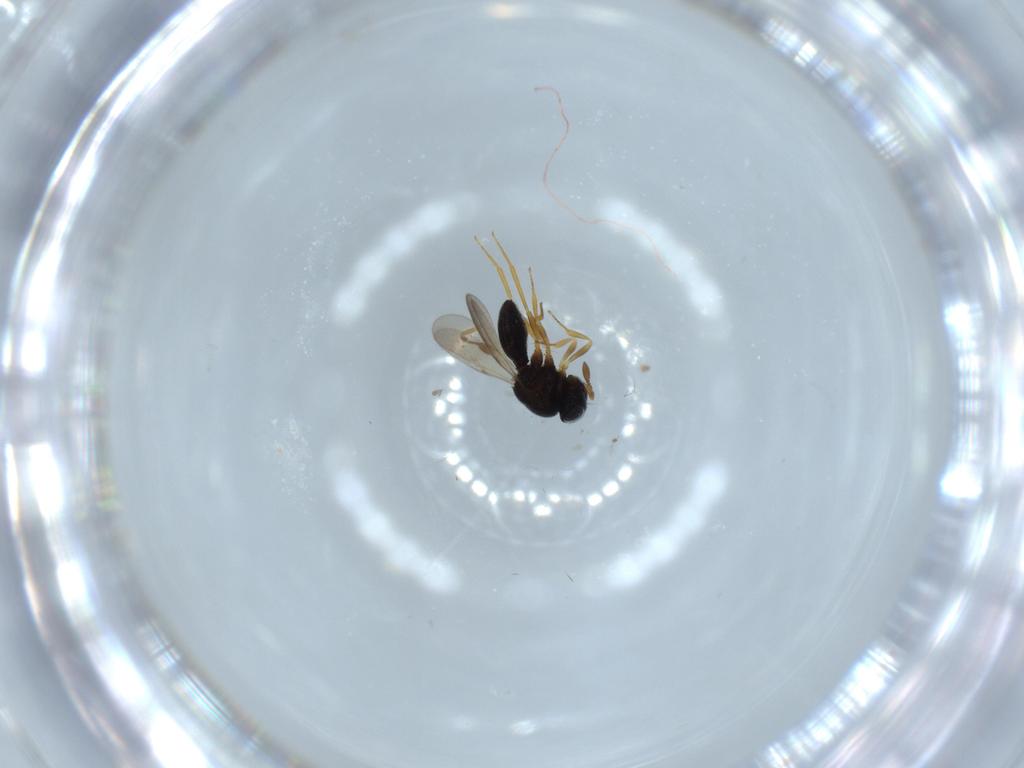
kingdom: Animalia
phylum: Arthropoda
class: Insecta
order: Hymenoptera
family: Scelionidae
